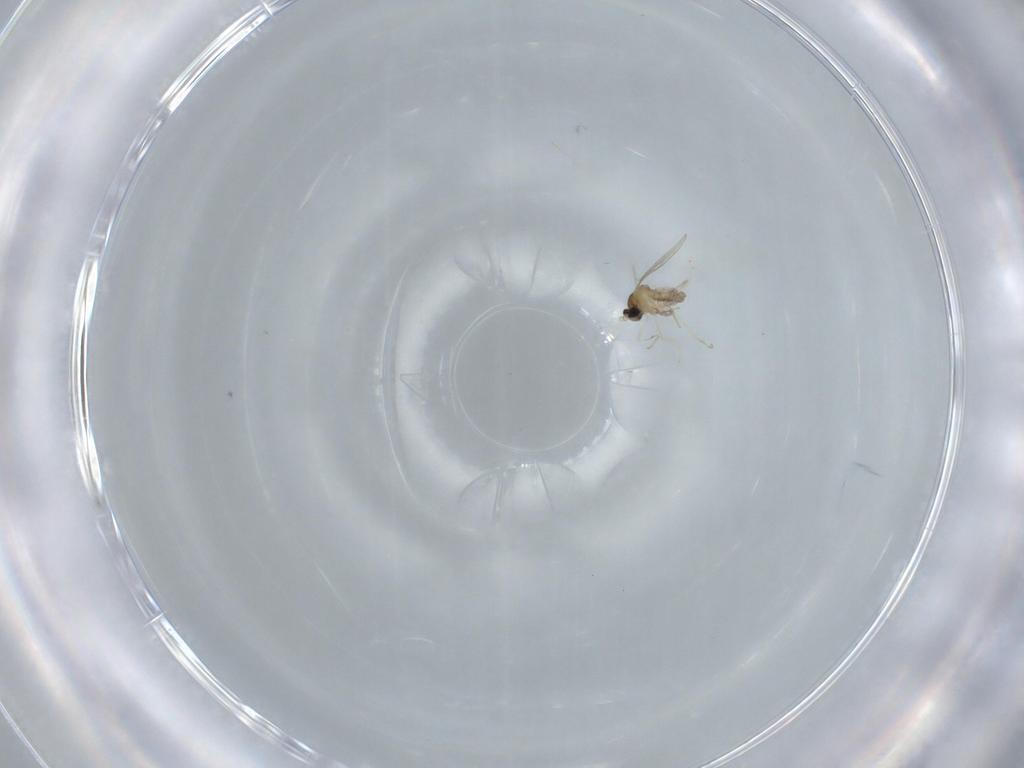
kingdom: Animalia
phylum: Arthropoda
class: Insecta
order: Diptera
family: Cecidomyiidae
